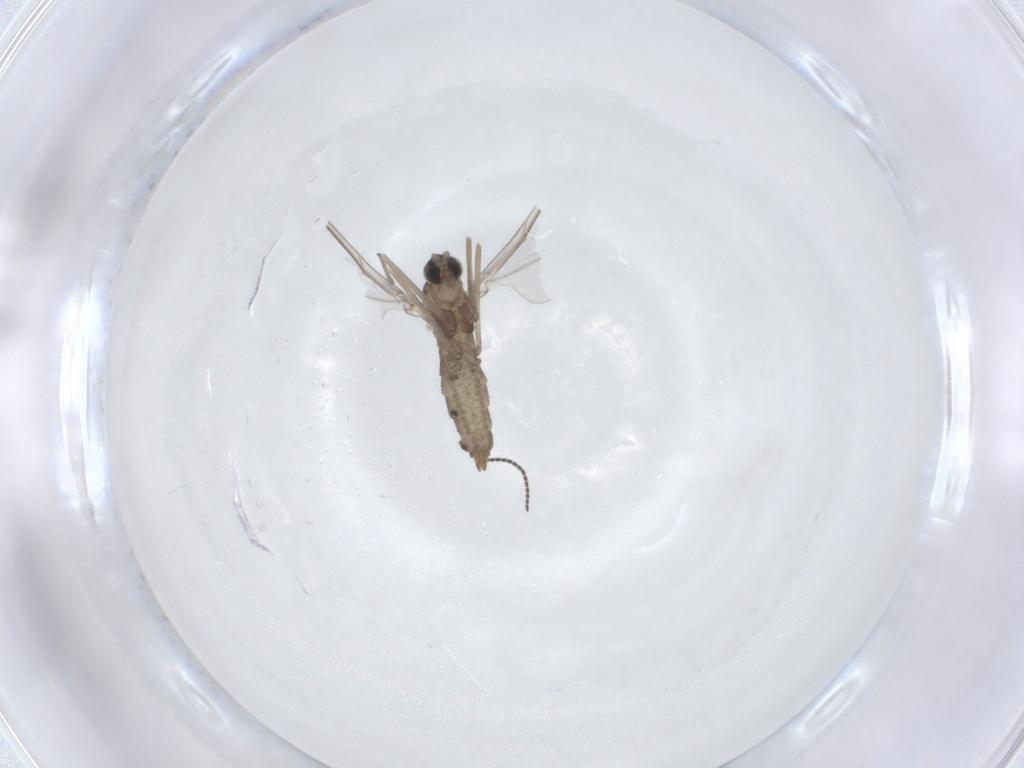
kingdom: Animalia
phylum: Arthropoda
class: Insecta
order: Diptera
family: Cecidomyiidae
